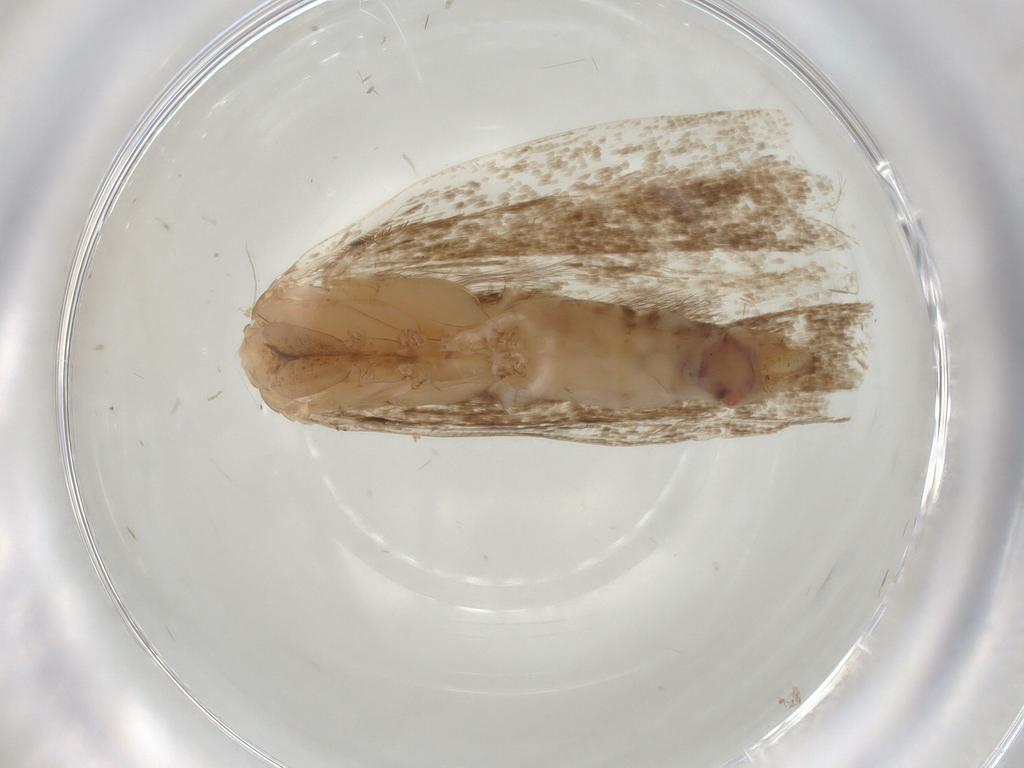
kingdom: Animalia
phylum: Arthropoda
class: Insecta
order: Lepidoptera
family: Gelechiidae
